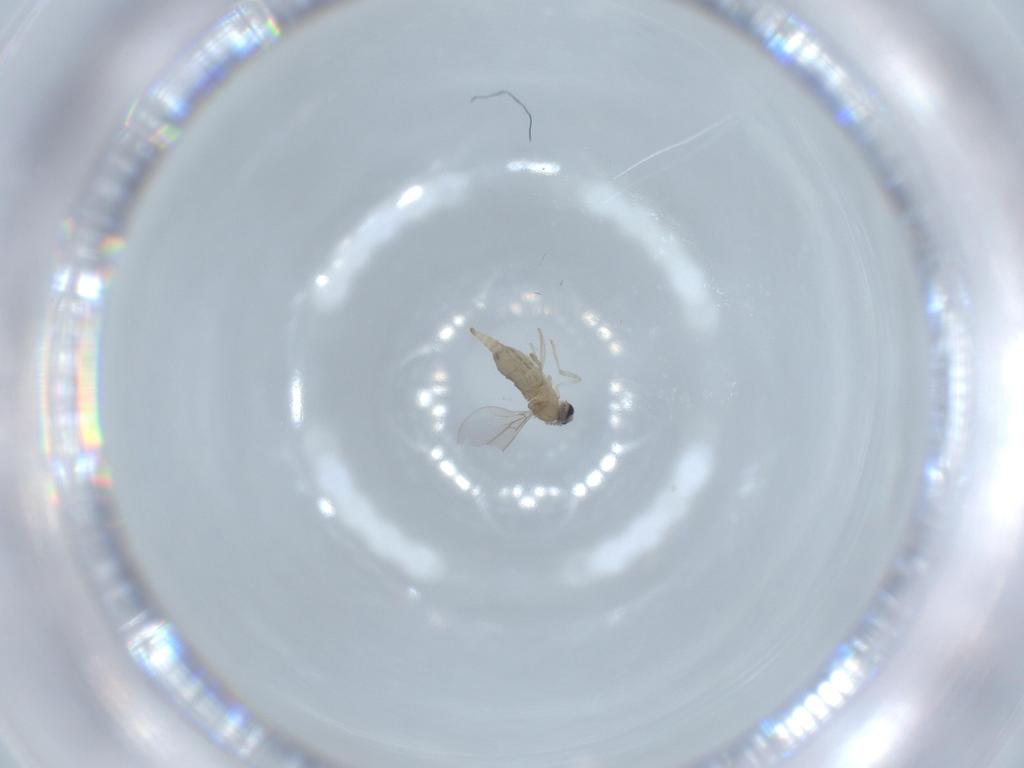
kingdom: Animalia
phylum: Arthropoda
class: Insecta
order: Diptera
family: Cecidomyiidae
